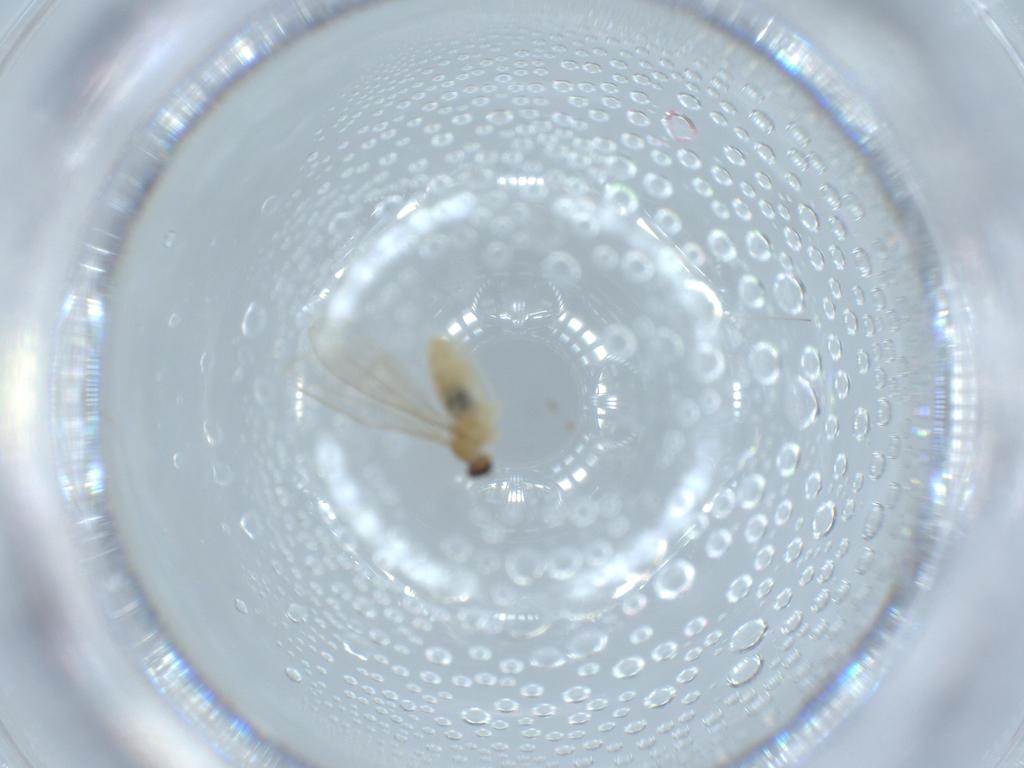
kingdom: Animalia
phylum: Arthropoda
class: Insecta
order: Diptera
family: Cecidomyiidae
